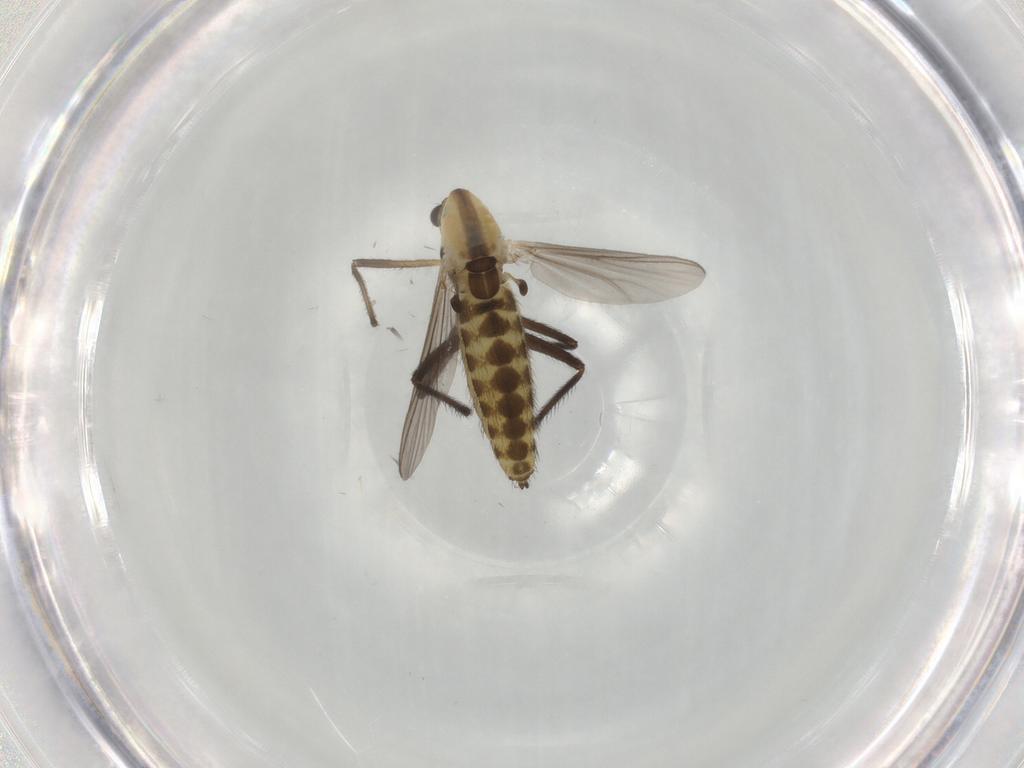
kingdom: Animalia
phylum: Arthropoda
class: Insecta
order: Diptera
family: Chironomidae
